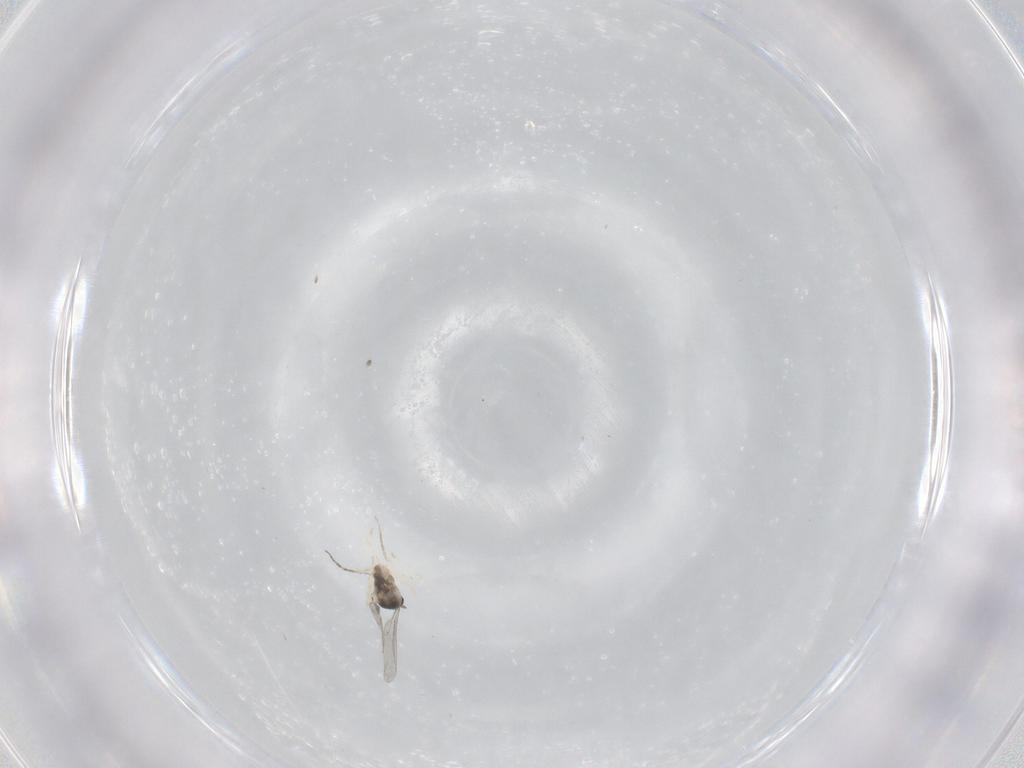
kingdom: Animalia
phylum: Arthropoda
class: Insecta
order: Diptera
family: Cecidomyiidae
